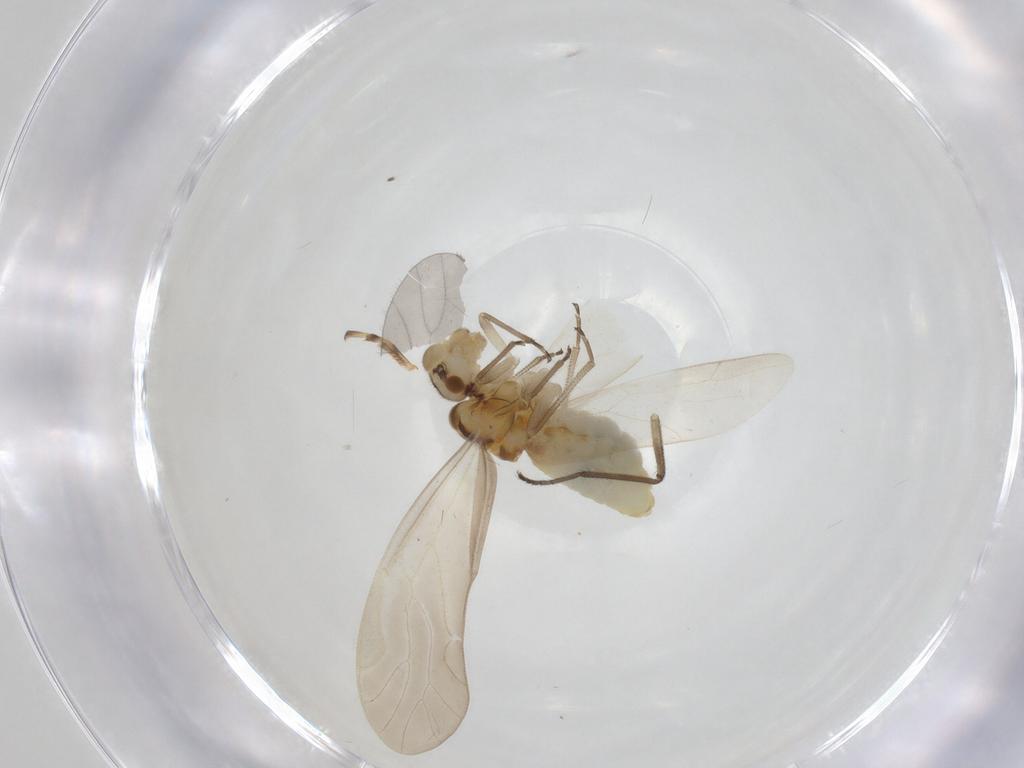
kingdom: Animalia
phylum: Arthropoda
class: Insecta
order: Psocodea
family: Caeciliusidae
